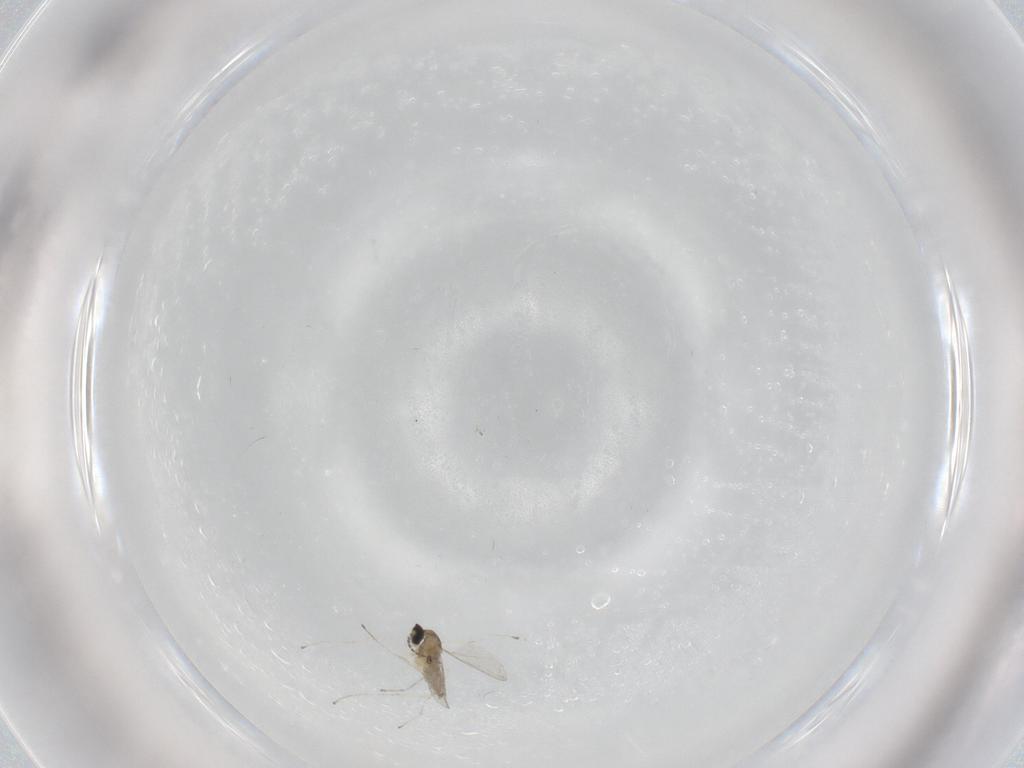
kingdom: Animalia
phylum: Arthropoda
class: Insecta
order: Diptera
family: Cecidomyiidae
